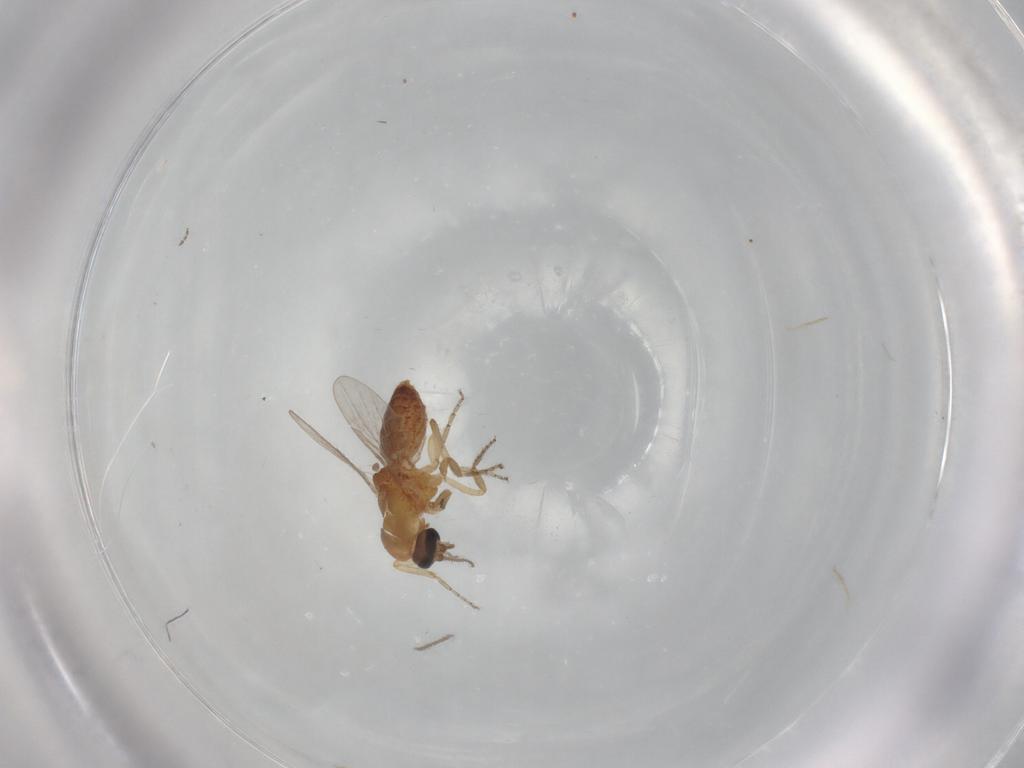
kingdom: Animalia
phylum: Arthropoda
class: Insecta
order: Diptera
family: Ceratopogonidae
